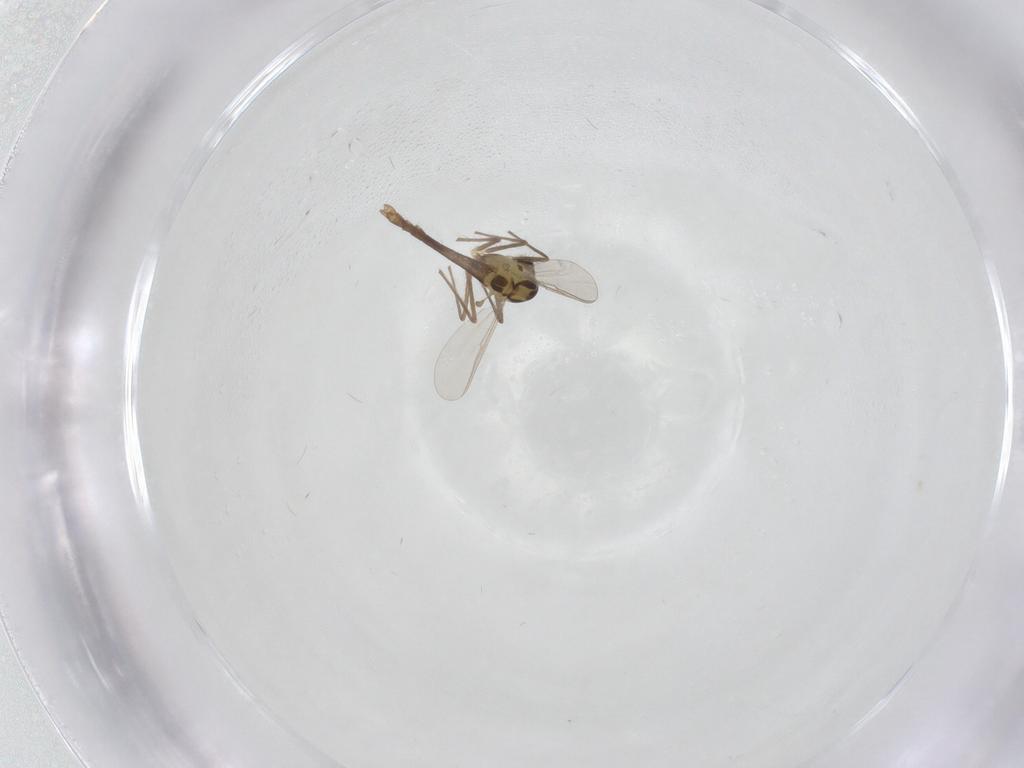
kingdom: Animalia
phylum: Arthropoda
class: Insecta
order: Diptera
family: Chironomidae
